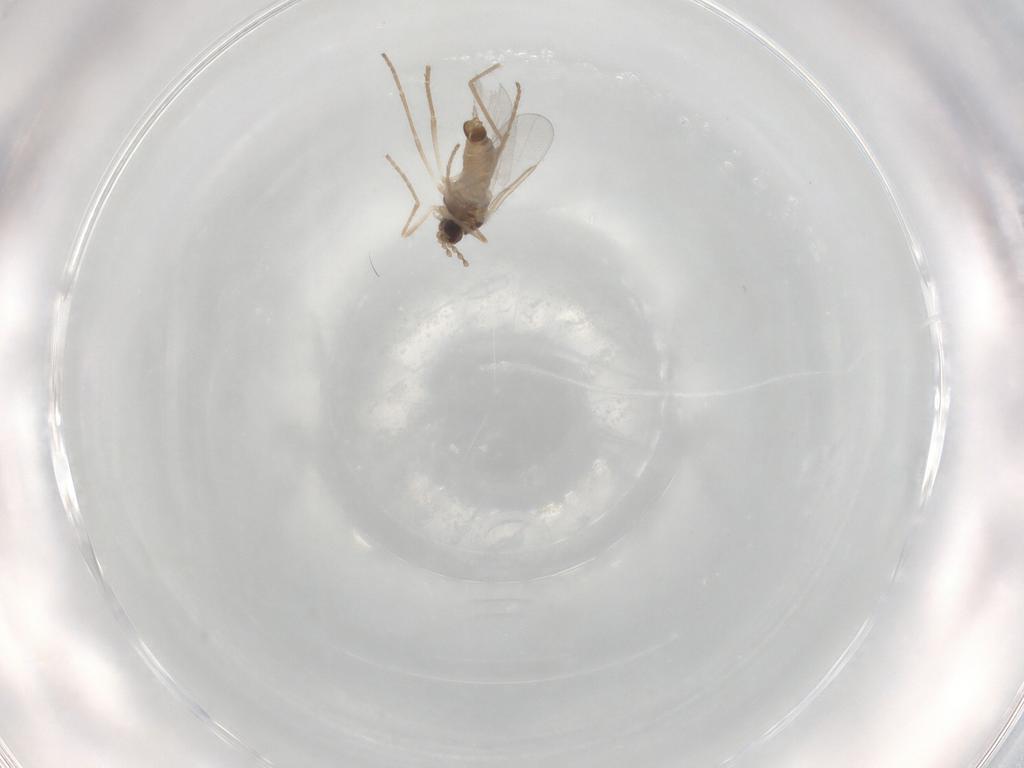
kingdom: Animalia
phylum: Arthropoda
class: Insecta
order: Diptera
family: Cecidomyiidae
